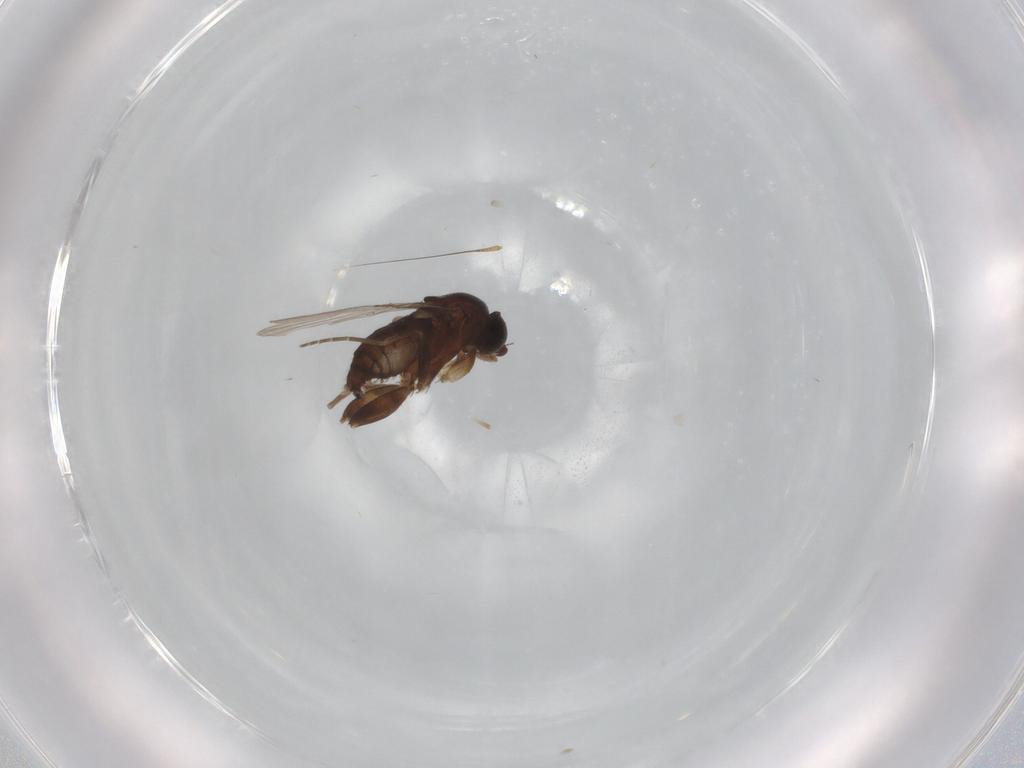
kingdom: Animalia
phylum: Arthropoda
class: Insecta
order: Diptera
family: Phoridae
